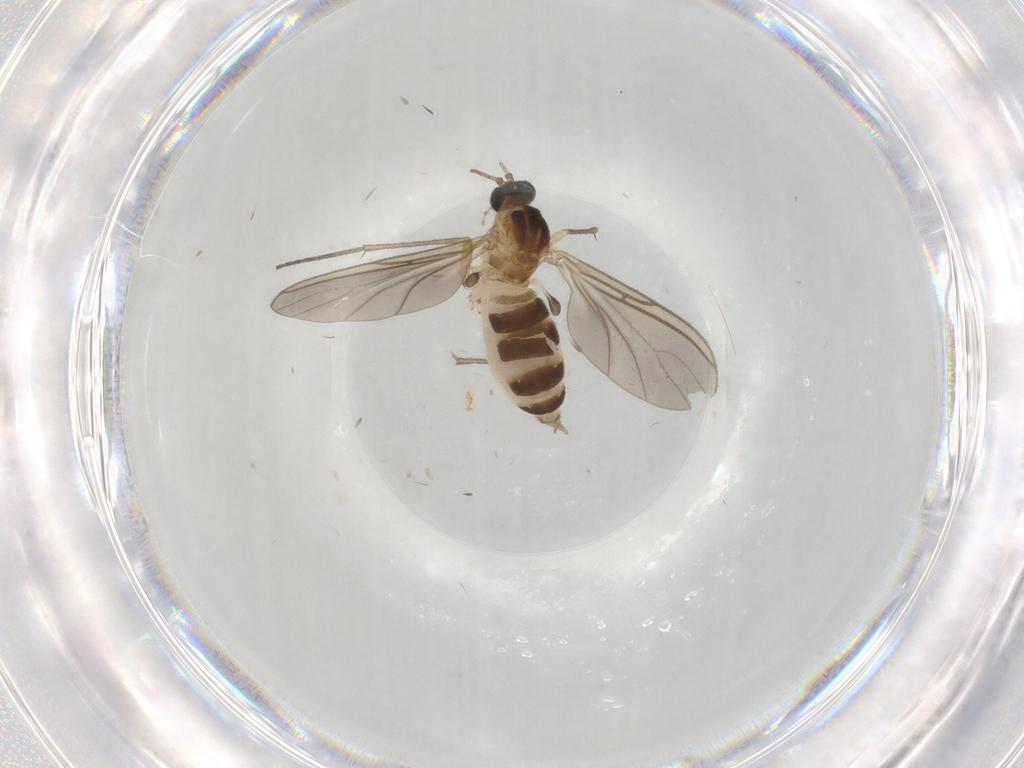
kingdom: Animalia
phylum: Arthropoda
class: Insecta
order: Diptera
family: Sciaridae
